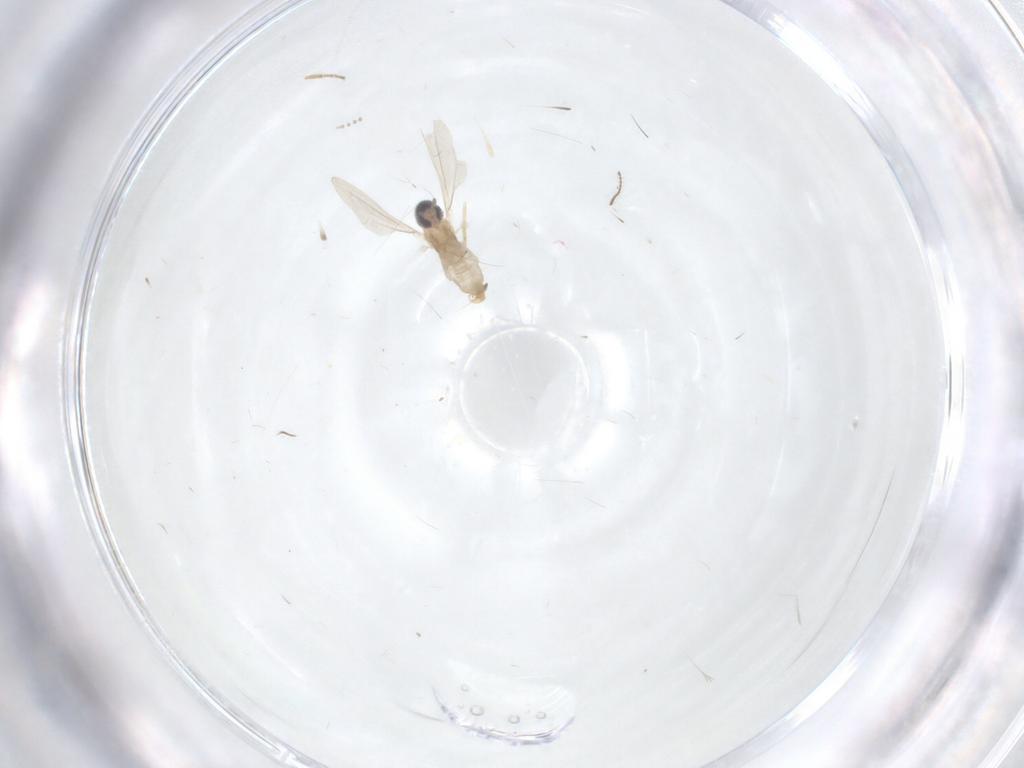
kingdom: Animalia
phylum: Arthropoda
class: Insecta
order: Diptera
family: Cecidomyiidae
